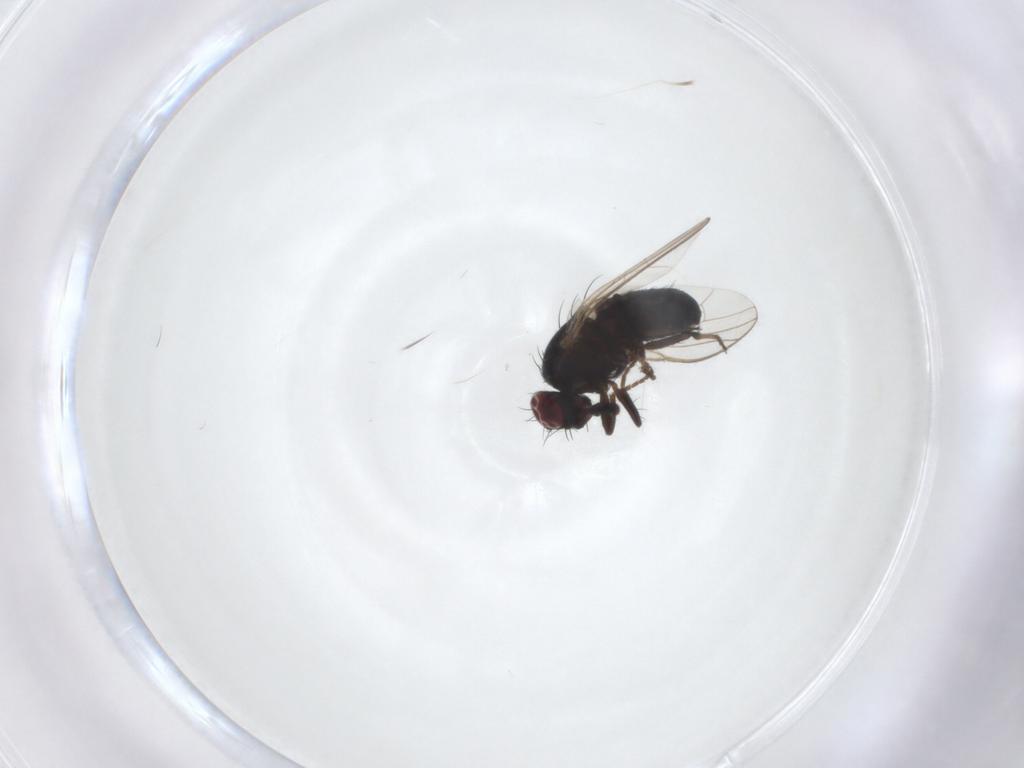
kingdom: Animalia
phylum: Arthropoda
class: Insecta
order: Diptera
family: Carnidae
